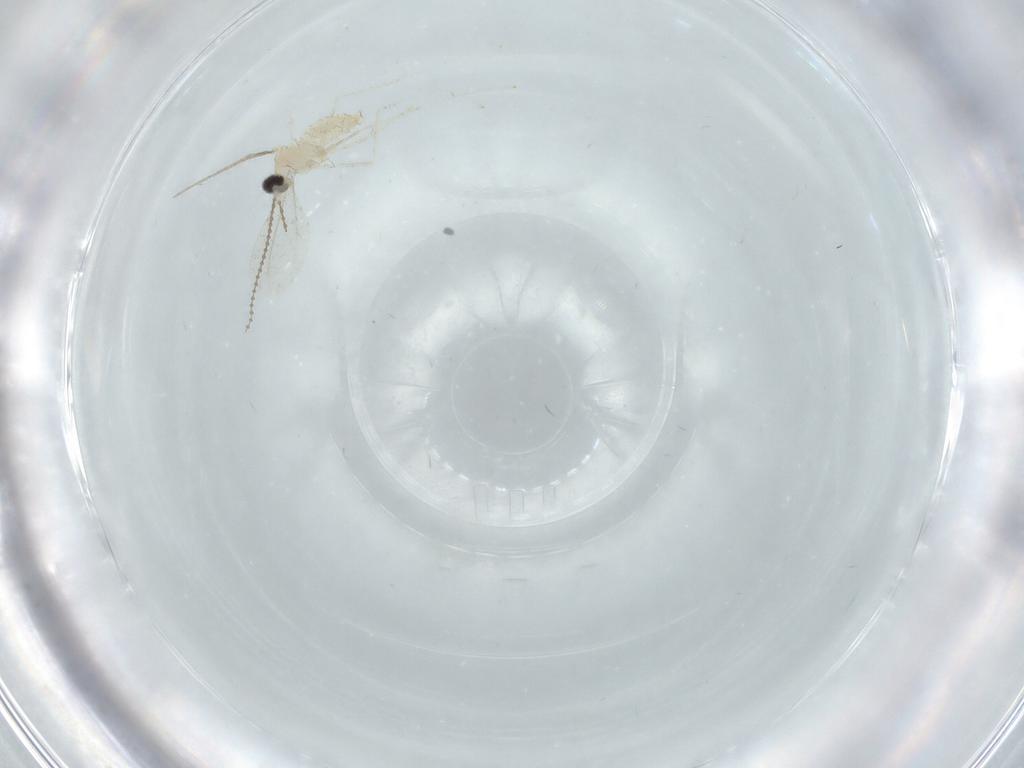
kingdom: Animalia
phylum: Arthropoda
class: Insecta
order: Diptera
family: Cecidomyiidae
